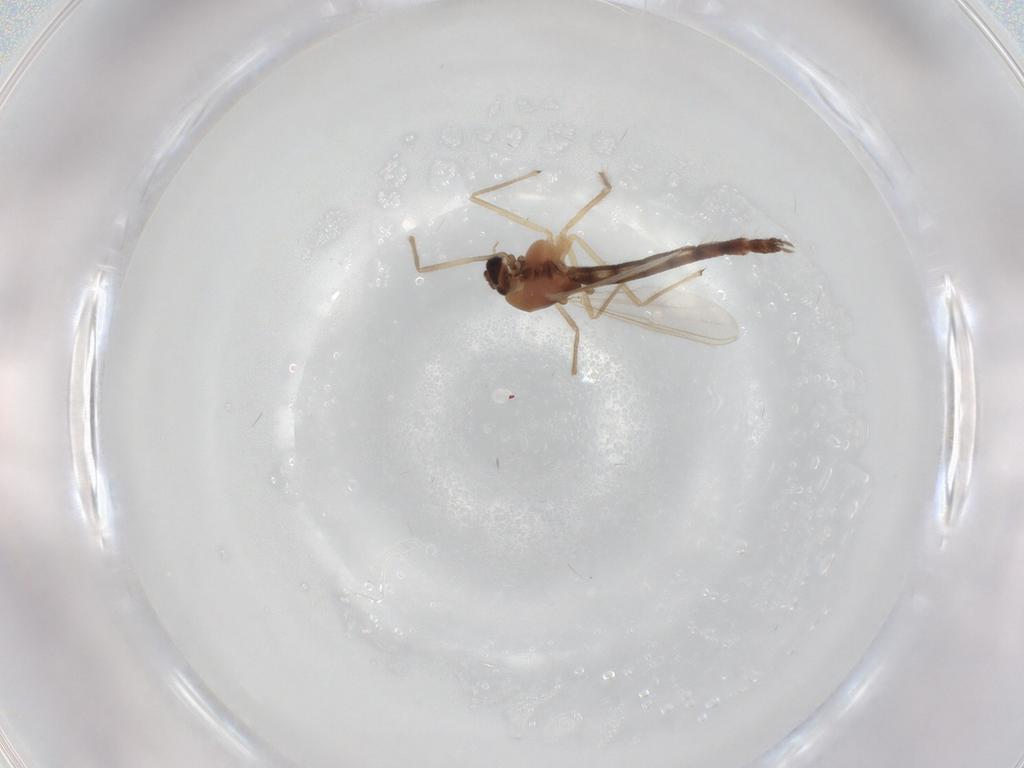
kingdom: Animalia
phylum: Arthropoda
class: Insecta
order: Diptera
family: Chironomidae
